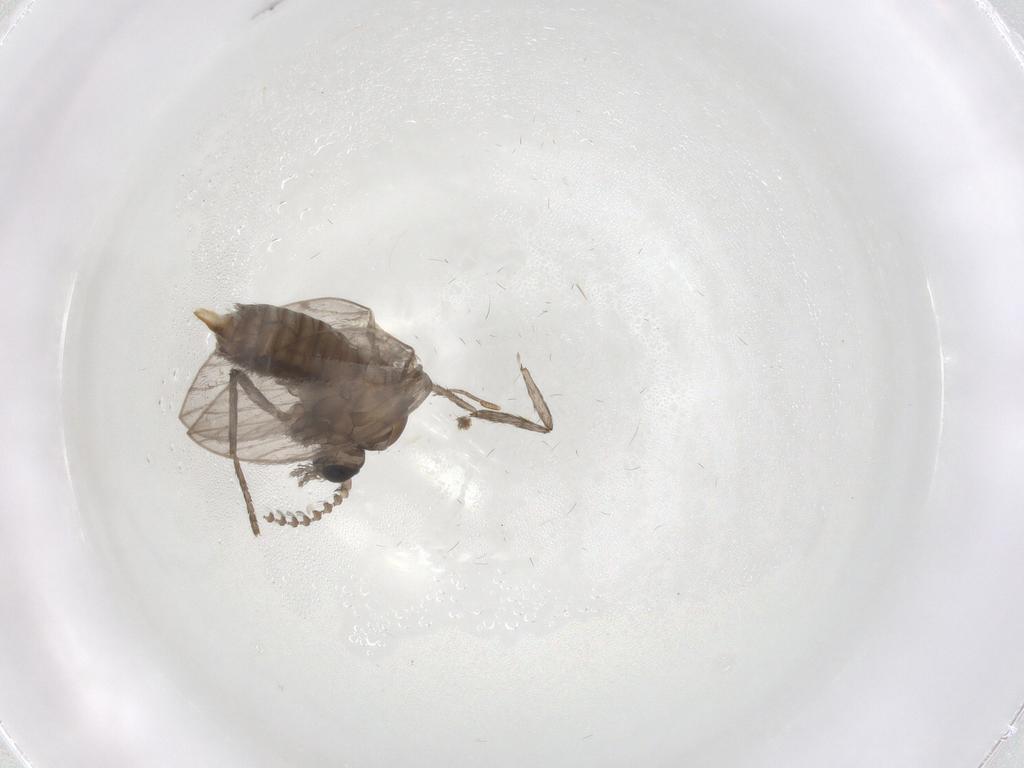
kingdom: Animalia
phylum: Arthropoda
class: Insecta
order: Diptera
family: Psychodidae
